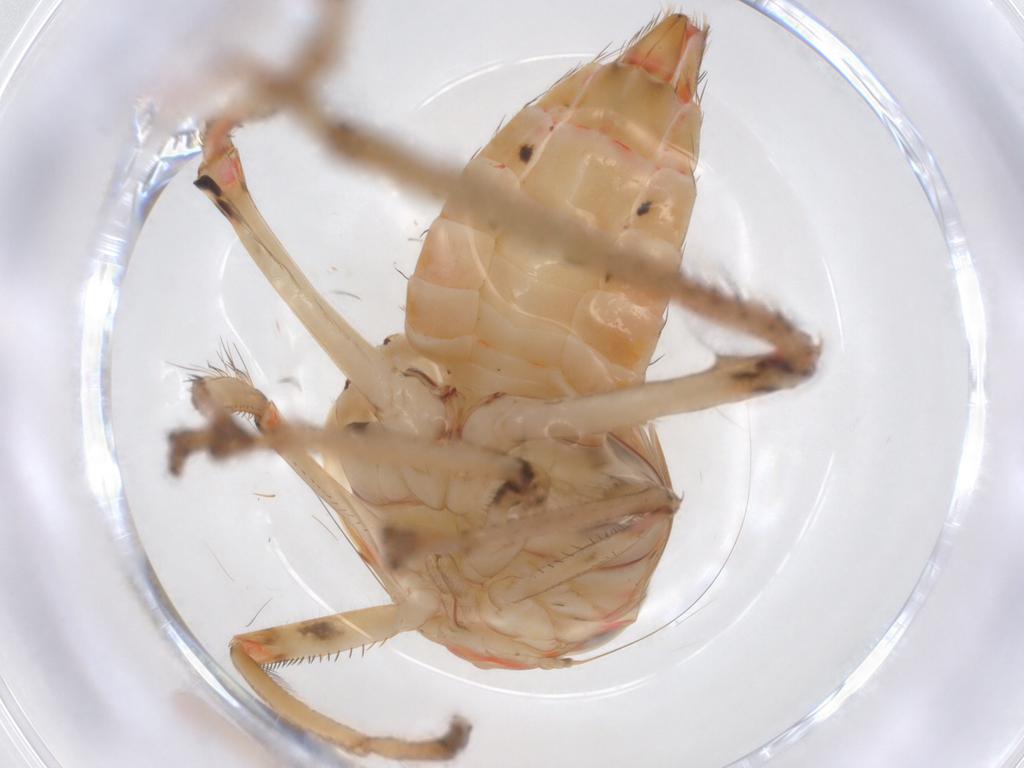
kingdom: Animalia
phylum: Arthropoda
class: Insecta
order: Hemiptera
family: Cicadellidae
